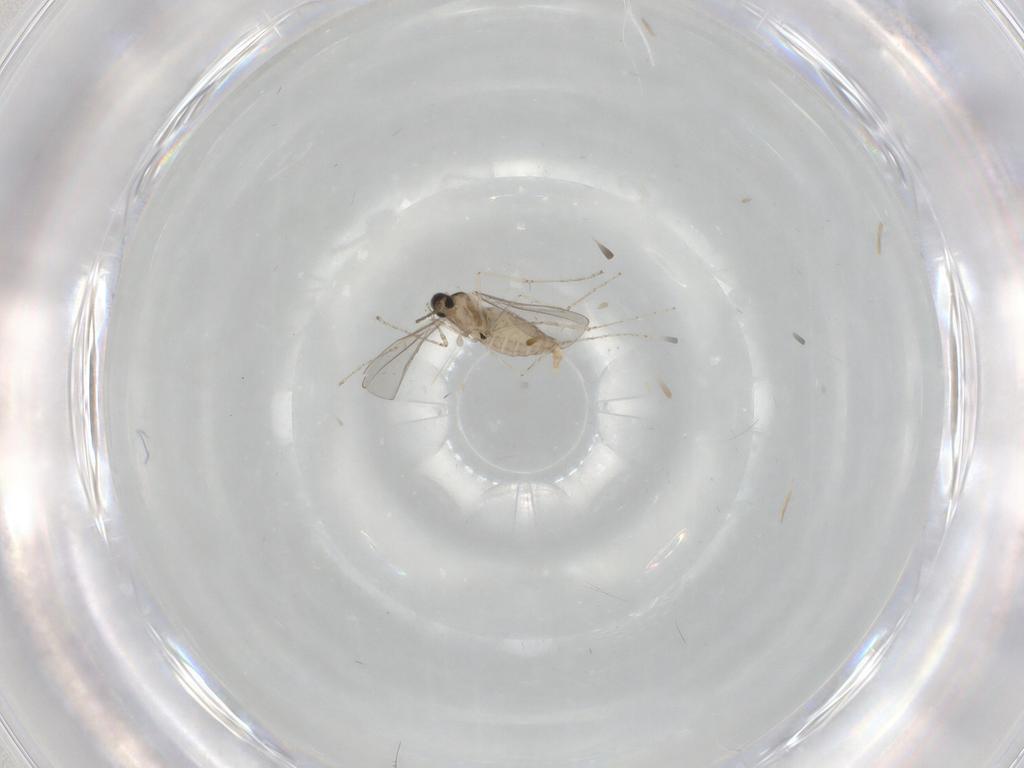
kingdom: Animalia
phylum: Arthropoda
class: Insecta
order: Diptera
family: Cecidomyiidae
